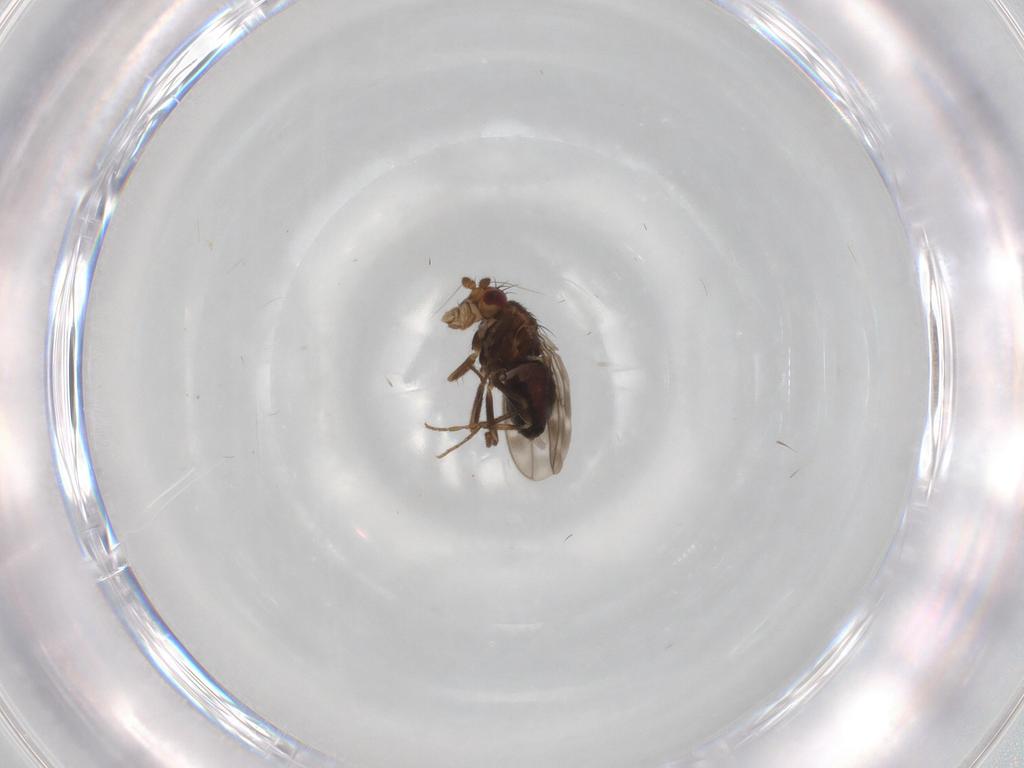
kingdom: Animalia
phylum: Arthropoda
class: Insecta
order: Diptera
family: Sphaeroceridae
